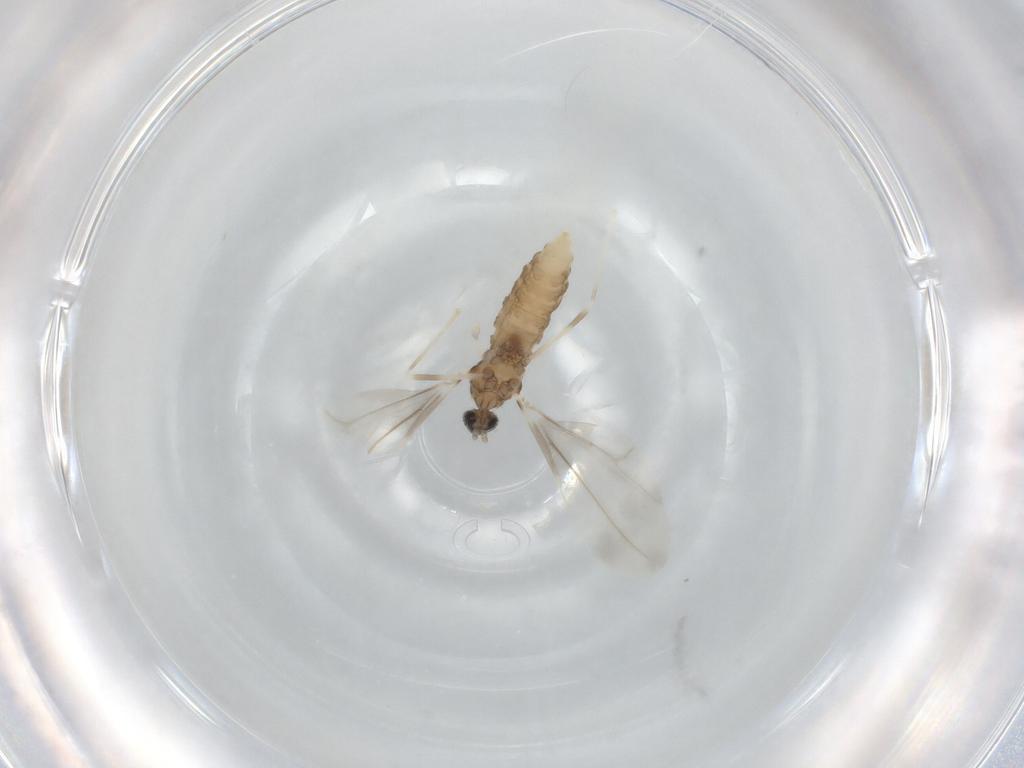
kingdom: Animalia
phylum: Arthropoda
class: Insecta
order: Diptera
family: Cecidomyiidae
